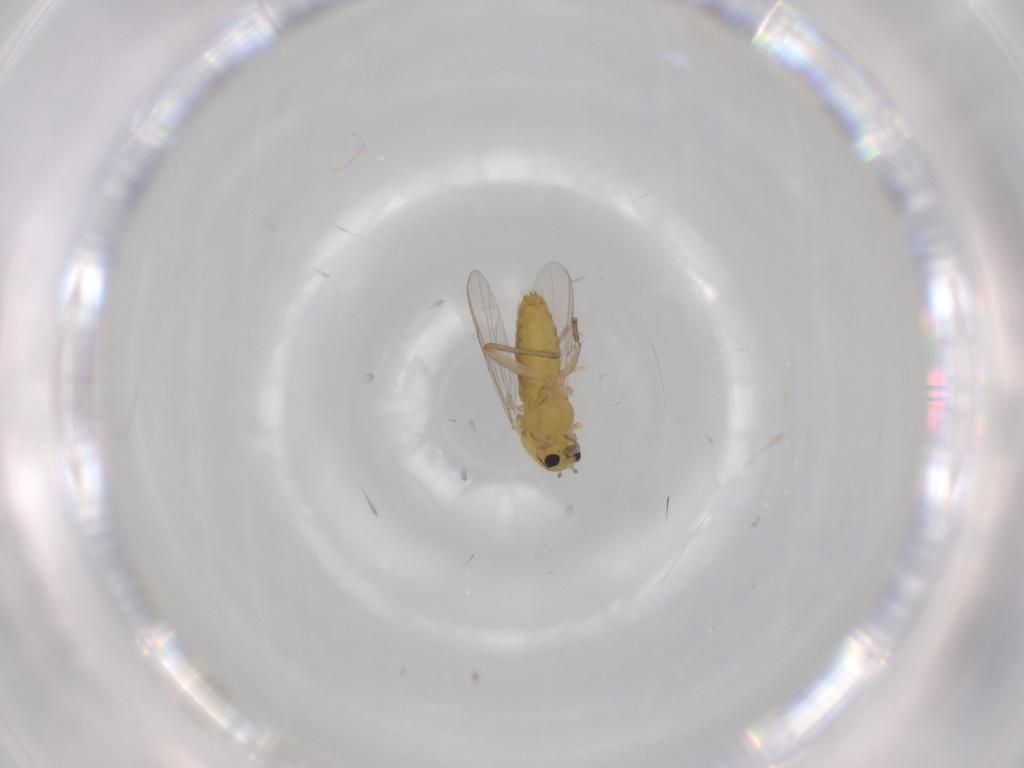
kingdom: Animalia
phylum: Arthropoda
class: Insecta
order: Diptera
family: Chironomidae
